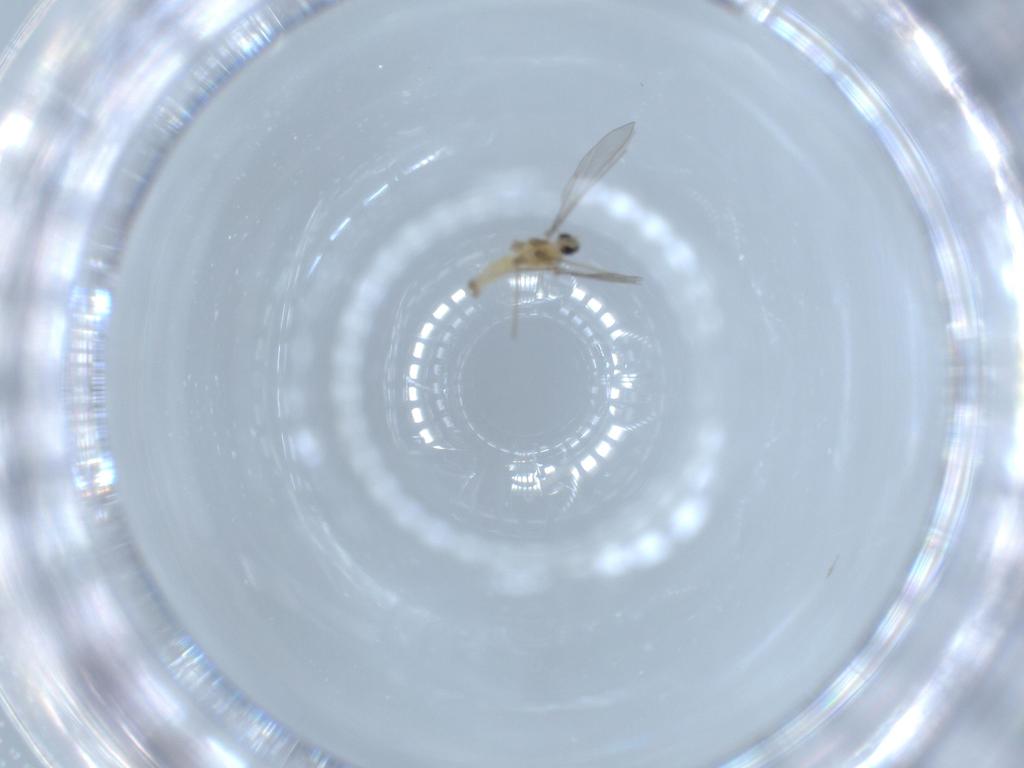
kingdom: Animalia
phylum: Arthropoda
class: Insecta
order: Diptera
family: Cecidomyiidae
